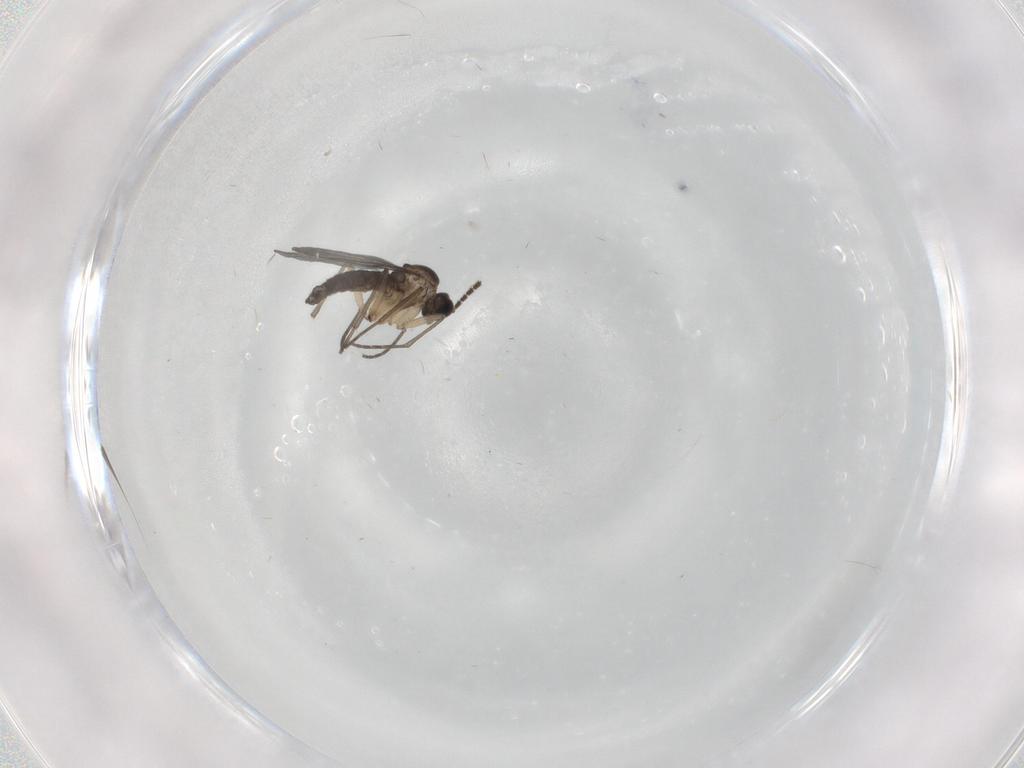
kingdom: Animalia
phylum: Arthropoda
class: Insecta
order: Diptera
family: Sciaridae
